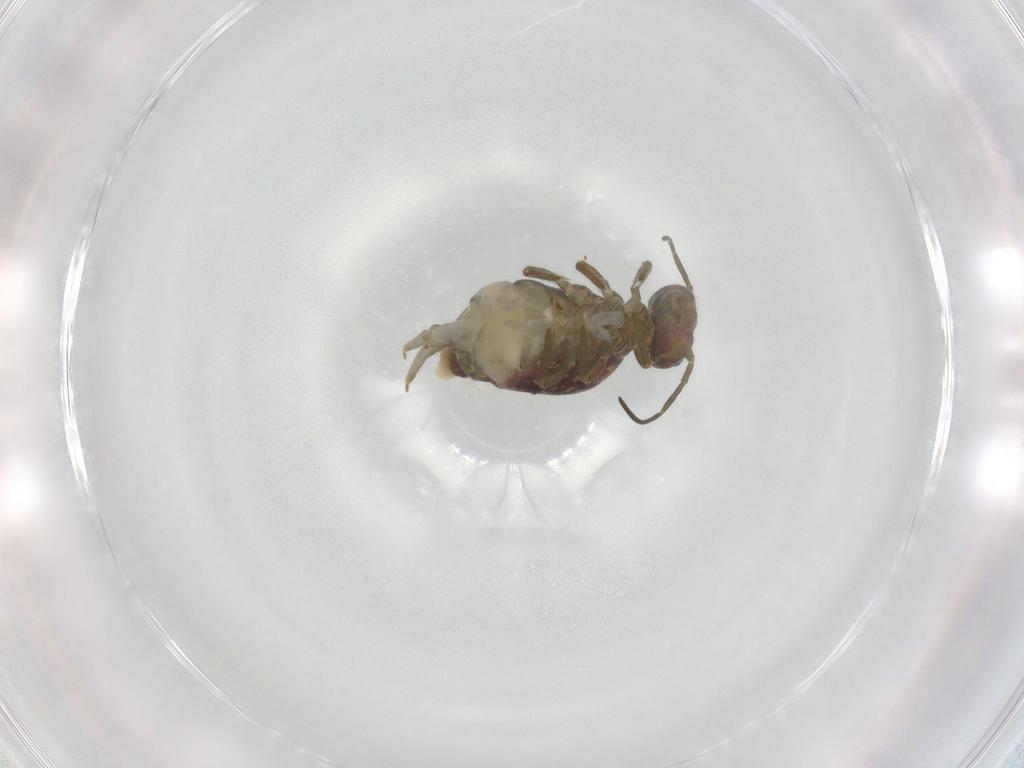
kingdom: Animalia
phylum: Arthropoda
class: Collembola
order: Symphypleona
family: Sminthuridae
